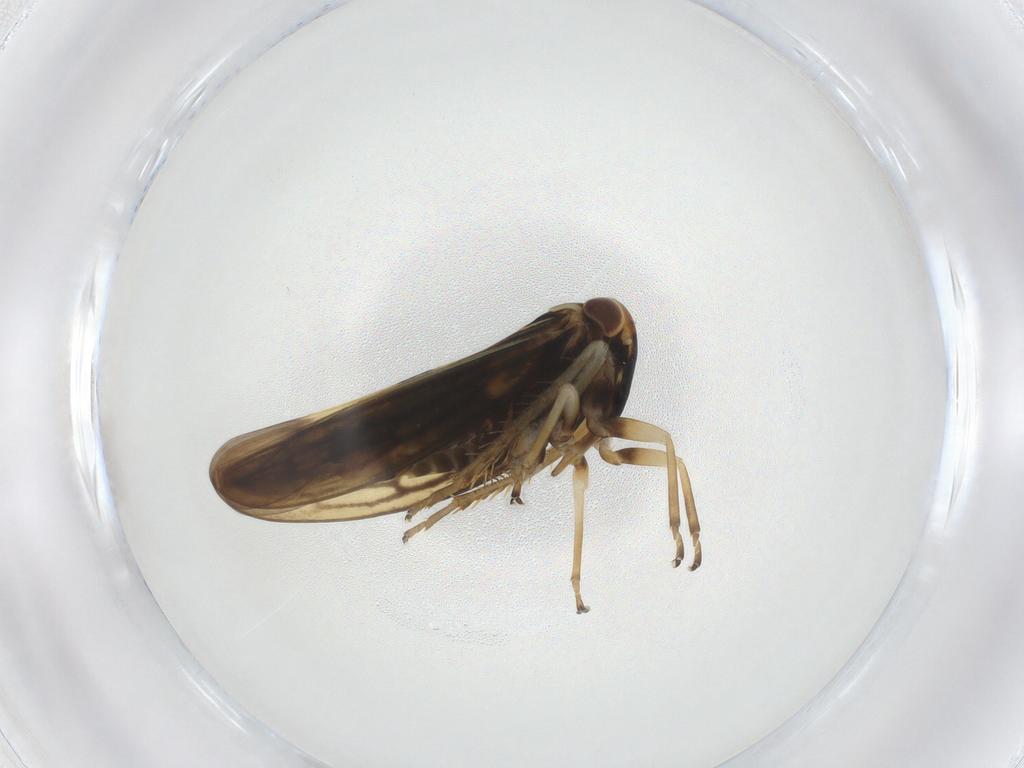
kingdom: Animalia
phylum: Arthropoda
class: Insecta
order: Hemiptera
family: Cicadellidae
